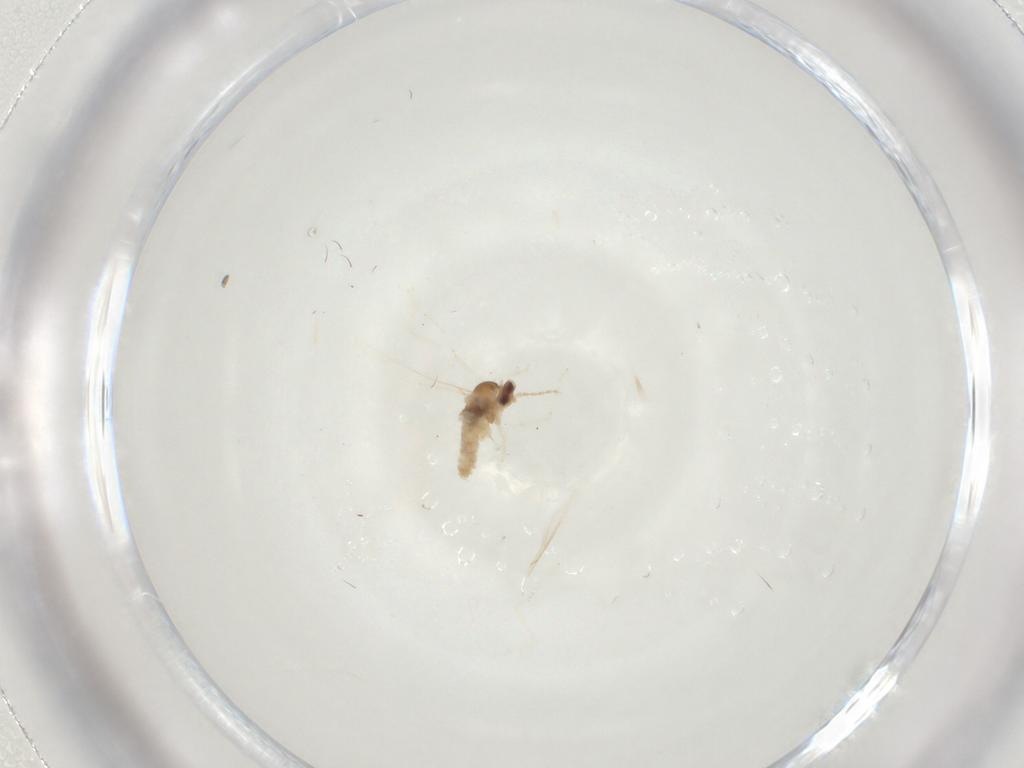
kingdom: Animalia
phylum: Arthropoda
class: Insecta
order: Diptera
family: Cecidomyiidae
